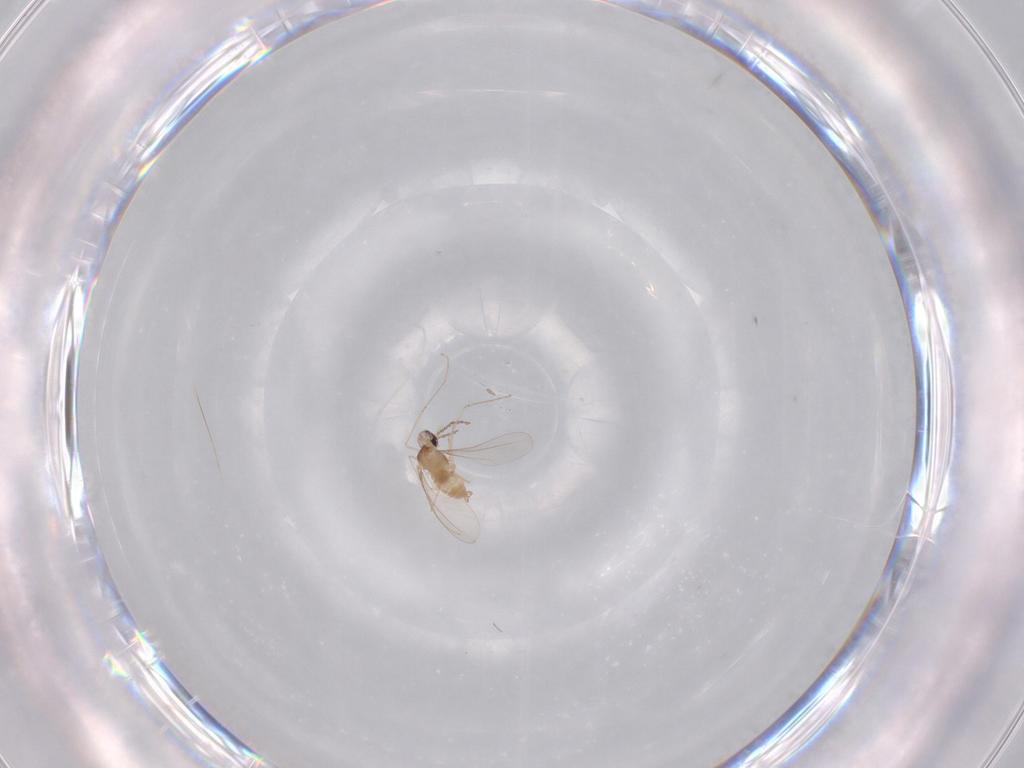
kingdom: Animalia
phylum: Arthropoda
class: Insecta
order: Diptera
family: Cecidomyiidae
